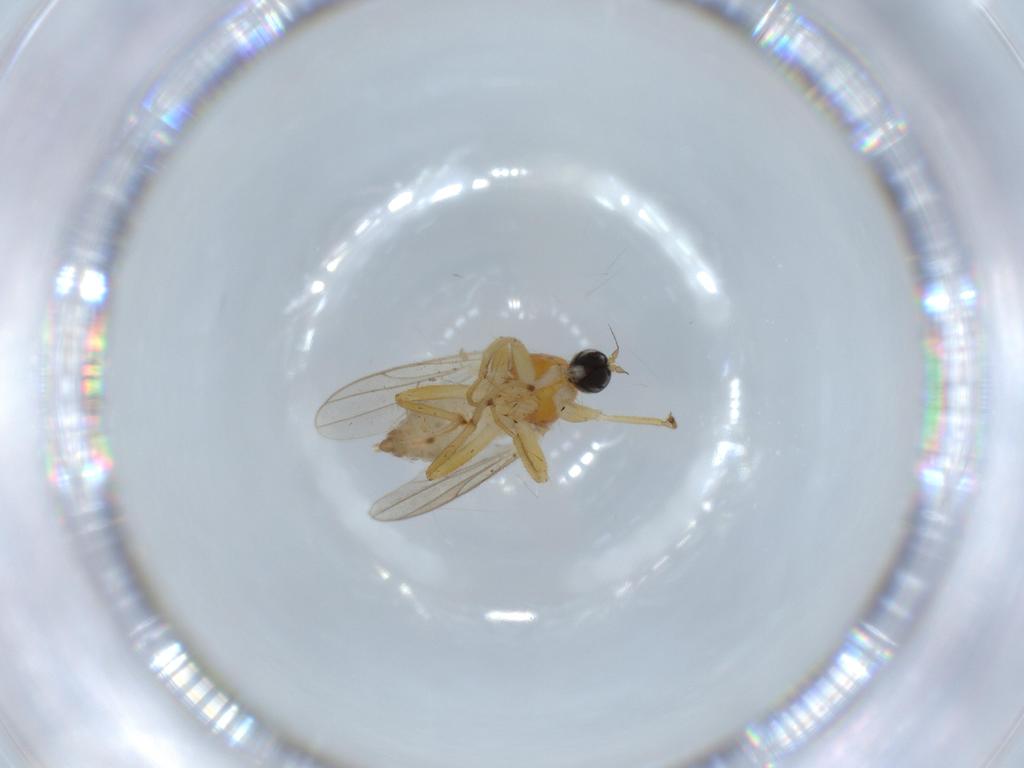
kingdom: Animalia
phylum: Arthropoda
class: Insecta
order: Diptera
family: Hybotidae
